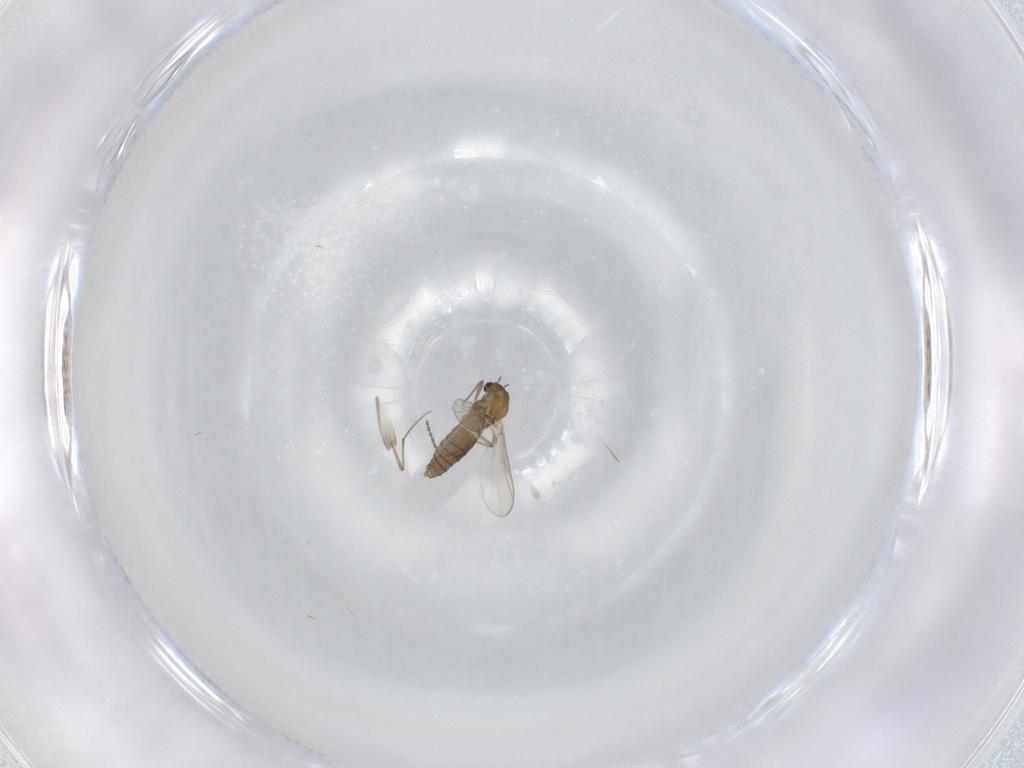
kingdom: Animalia
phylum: Arthropoda
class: Insecta
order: Diptera
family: Chironomidae
